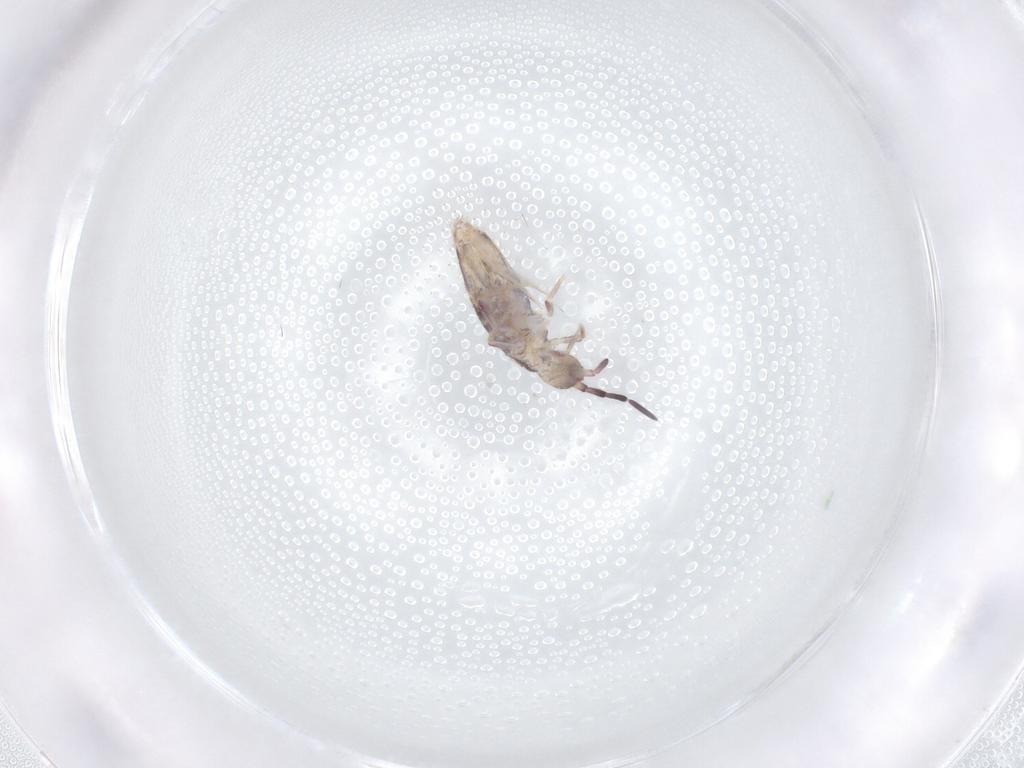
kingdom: Animalia
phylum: Arthropoda
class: Collembola
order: Poduromorpha
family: Hypogastruridae
